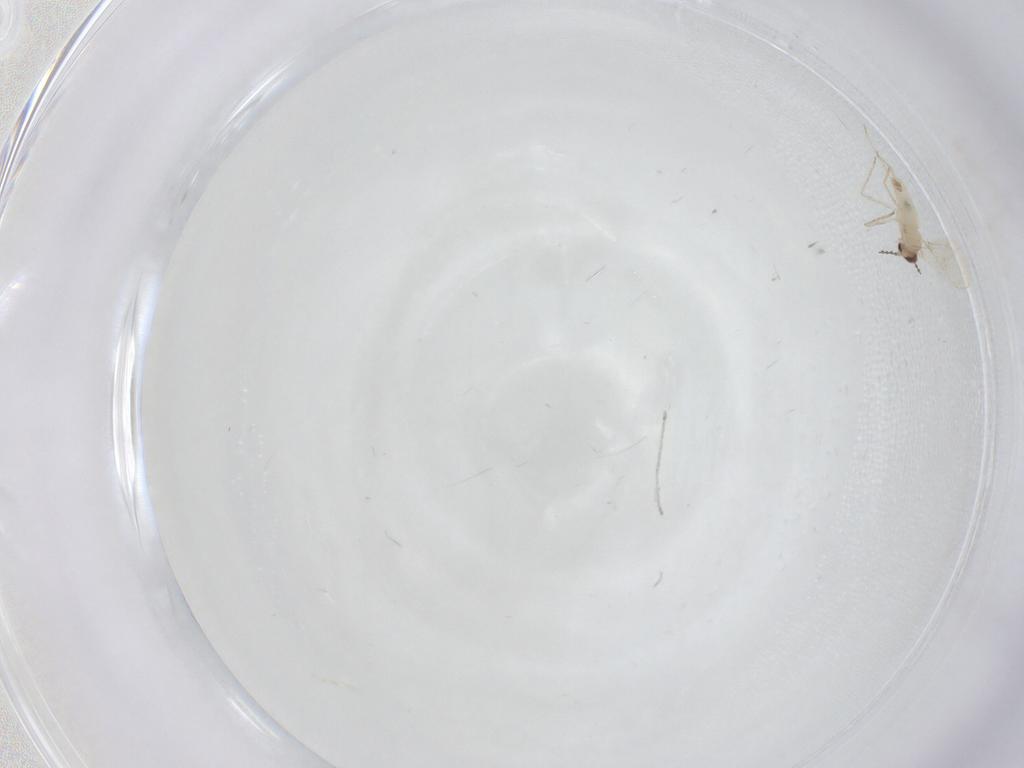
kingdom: Animalia
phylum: Arthropoda
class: Insecta
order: Diptera
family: Cecidomyiidae
